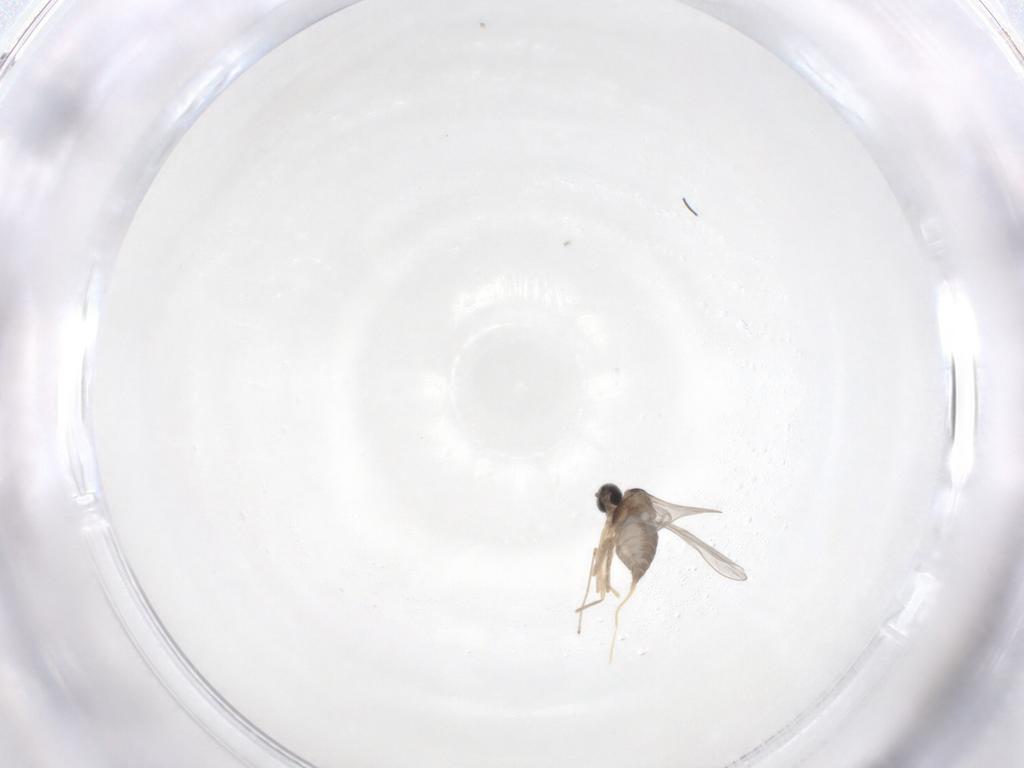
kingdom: Animalia
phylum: Arthropoda
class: Insecta
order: Diptera
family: Cecidomyiidae
